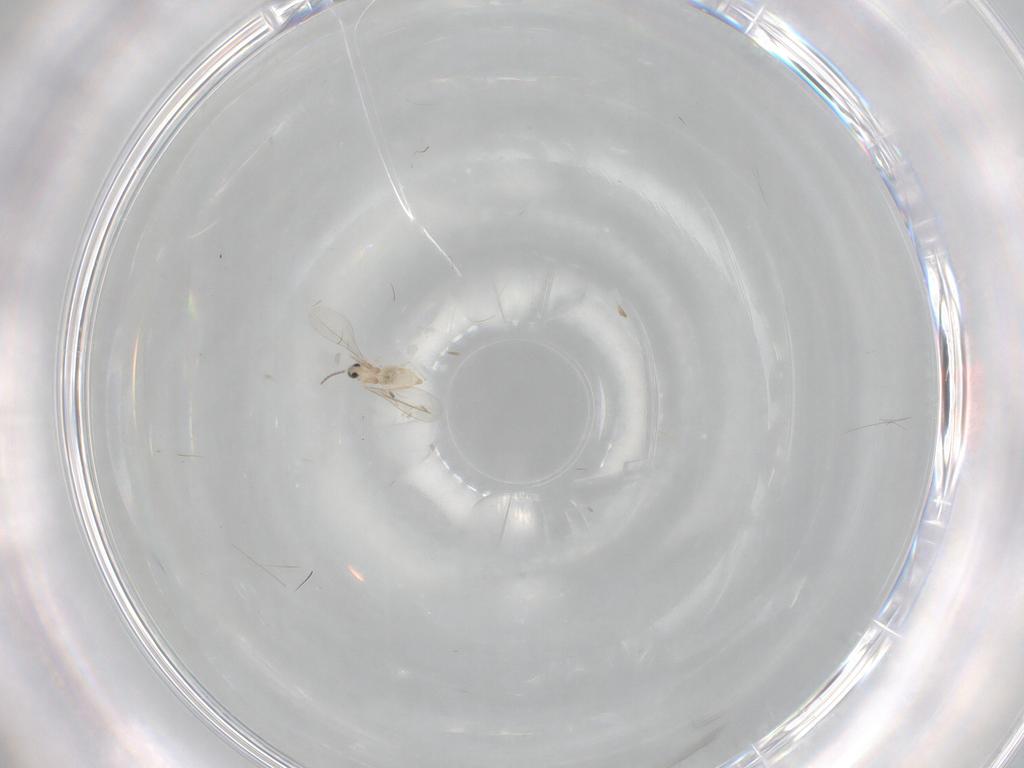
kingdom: Animalia
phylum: Arthropoda
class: Insecta
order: Diptera
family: Cecidomyiidae
